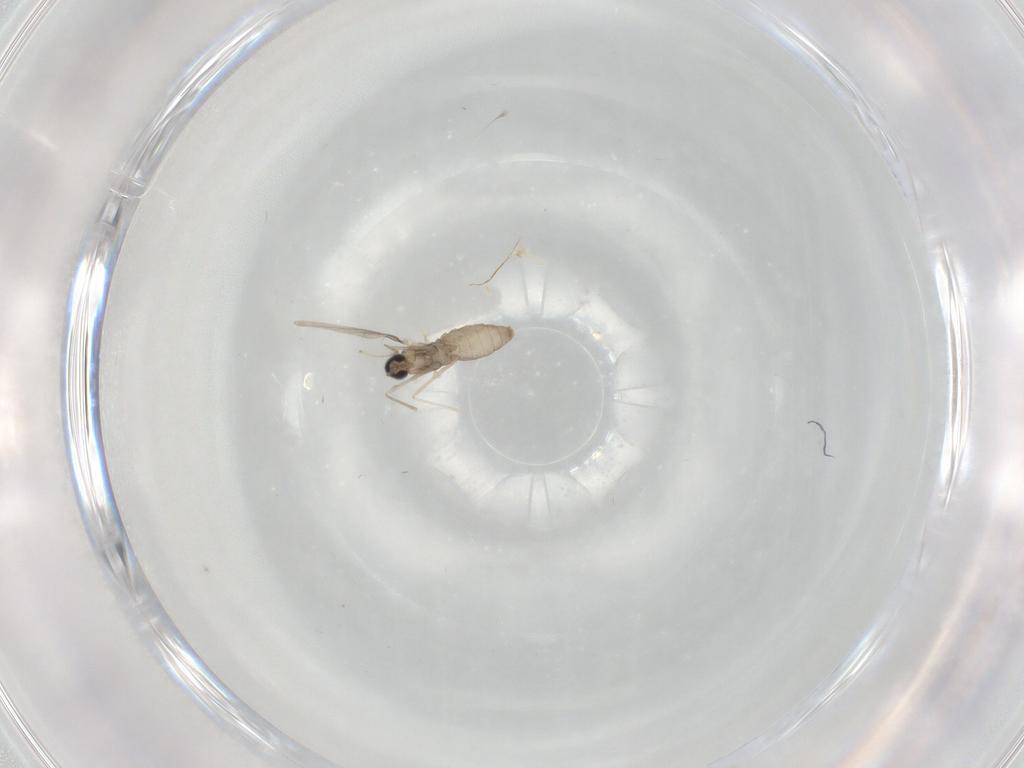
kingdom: Animalia
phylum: Arthropoda
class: Insecta
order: Diptera
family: Cecidomyiidae
